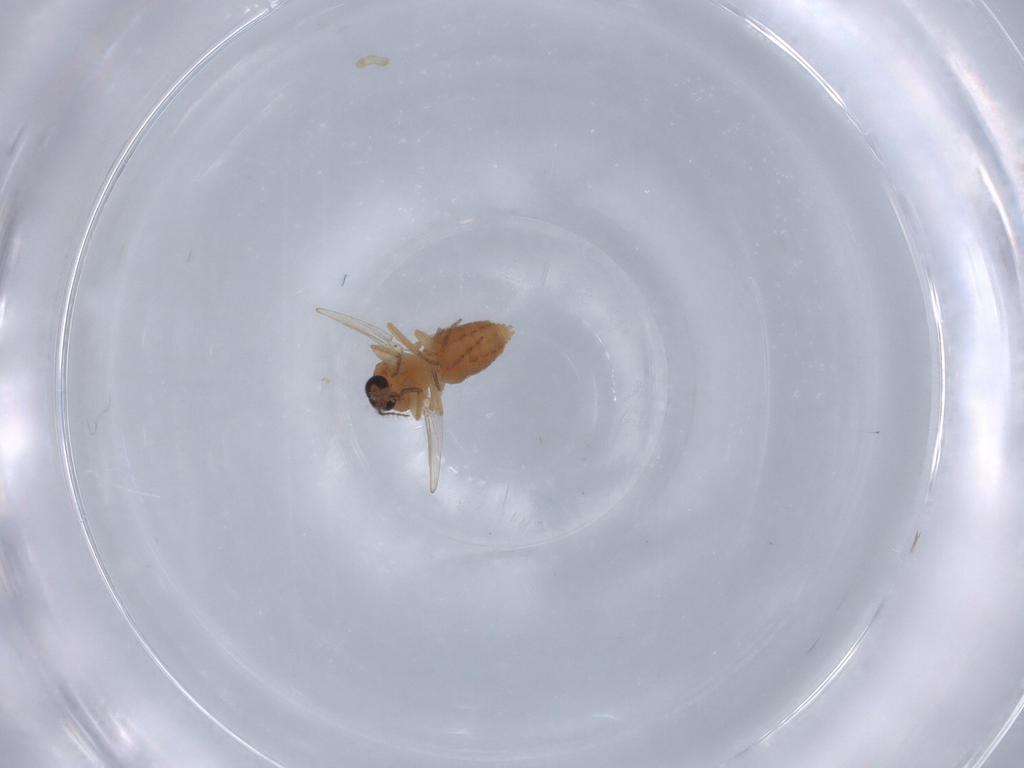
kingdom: Animalia
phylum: Arthropoda
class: Insecta
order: Diptera
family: Ceratopogonidae
